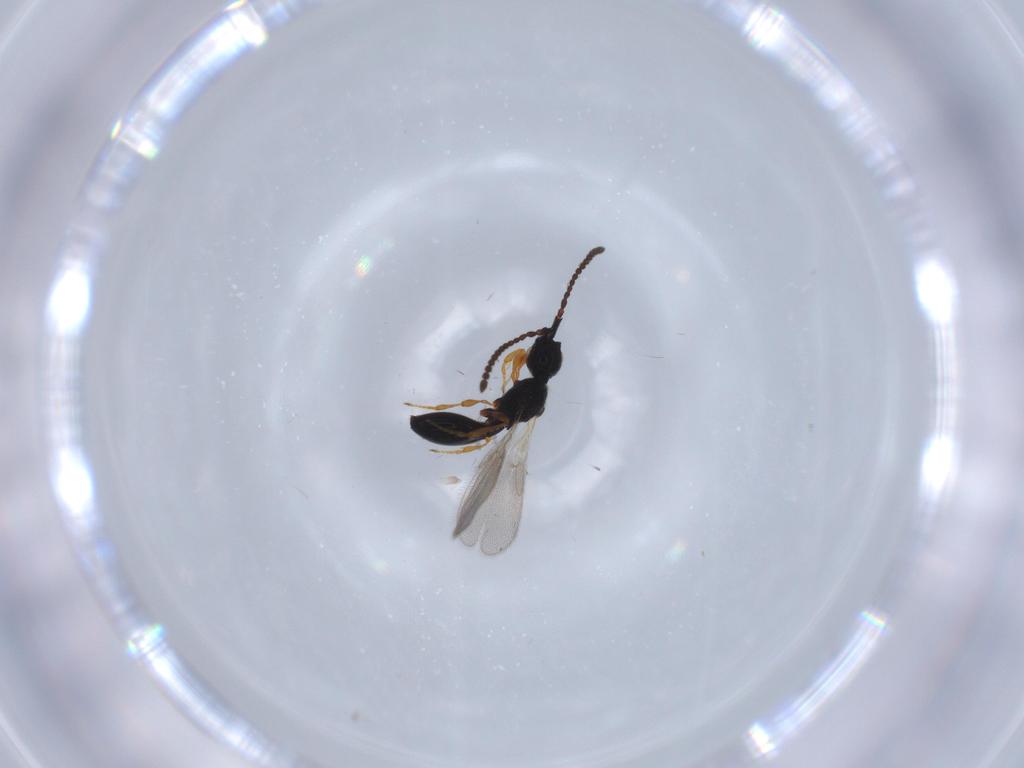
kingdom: Animalia
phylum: Arthropoda
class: Insecta
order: Hymenoptera
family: Diapriidae
